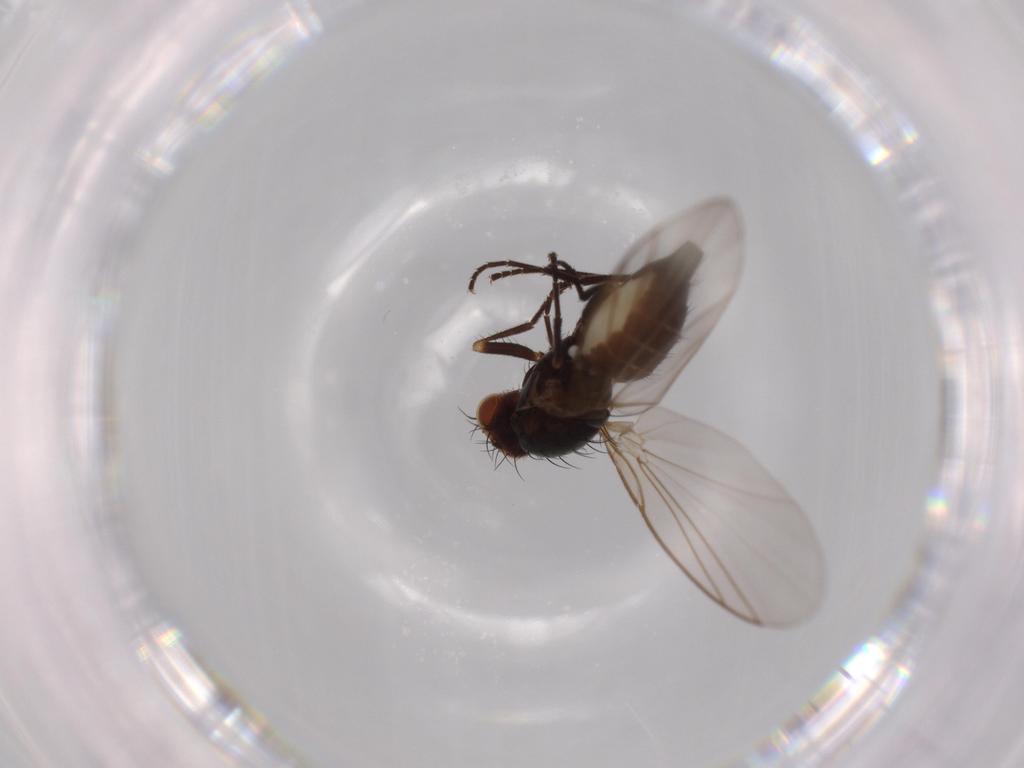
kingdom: Animalia
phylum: Arthropoda
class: Insecta
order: Diptera
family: Agromyzidae
